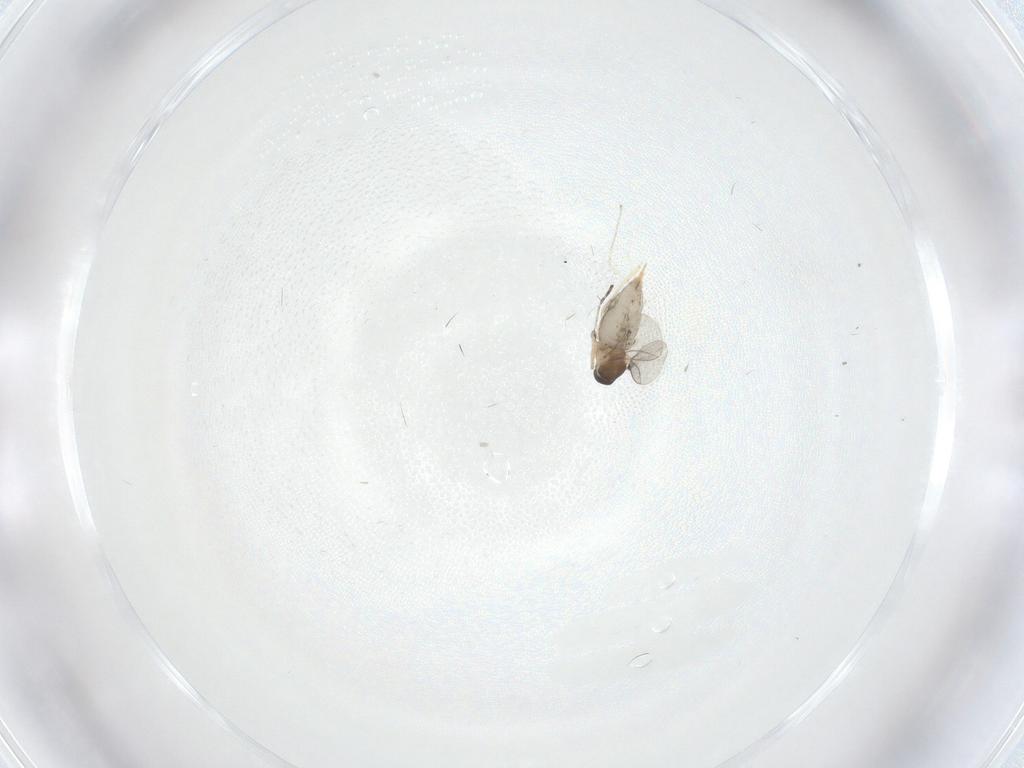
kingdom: Animalia
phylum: Arthropoda
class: Insecta
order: Diptera
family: Cecidomyiidae
